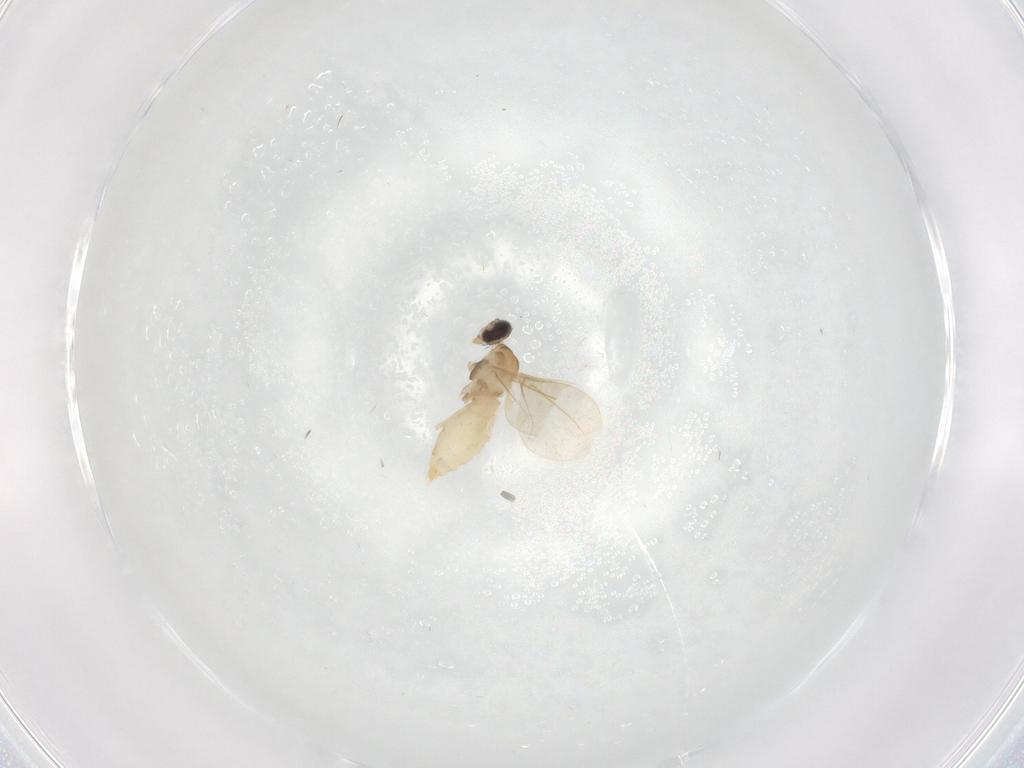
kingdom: Animalia
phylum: Arthropoda
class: Insecta
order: Diptera
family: Cecidomyiidae
